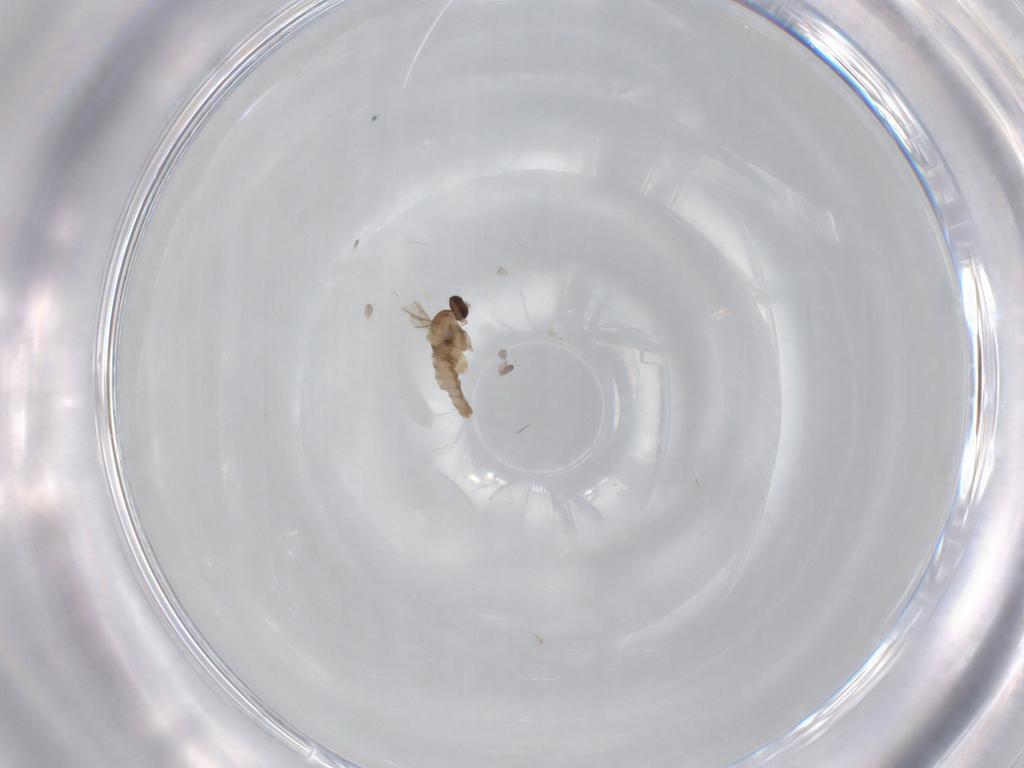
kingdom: Animalia
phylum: Arthropoda
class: Insecta
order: Diptera
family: Cecidomyiidae
